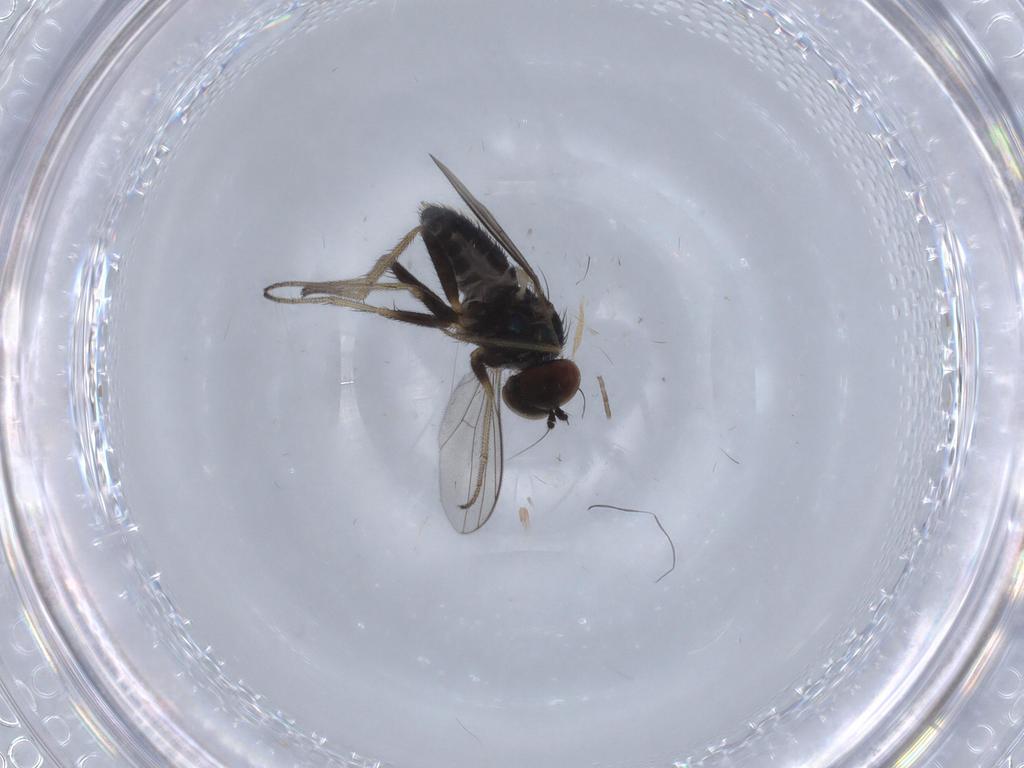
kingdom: Animalia
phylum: Arthropoda
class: Insecta
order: Diptera
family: Dolichopodidae
